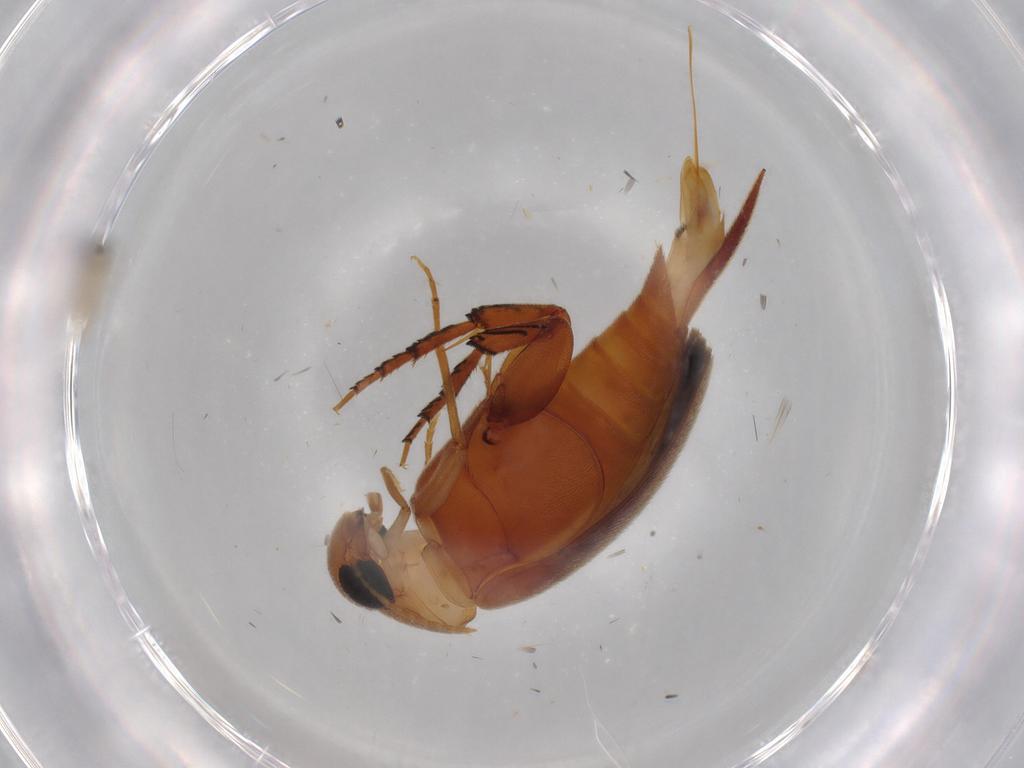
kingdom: Animalia
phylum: Arthropoda
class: Insecta
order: Coleoptera
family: Chrysomelidae
